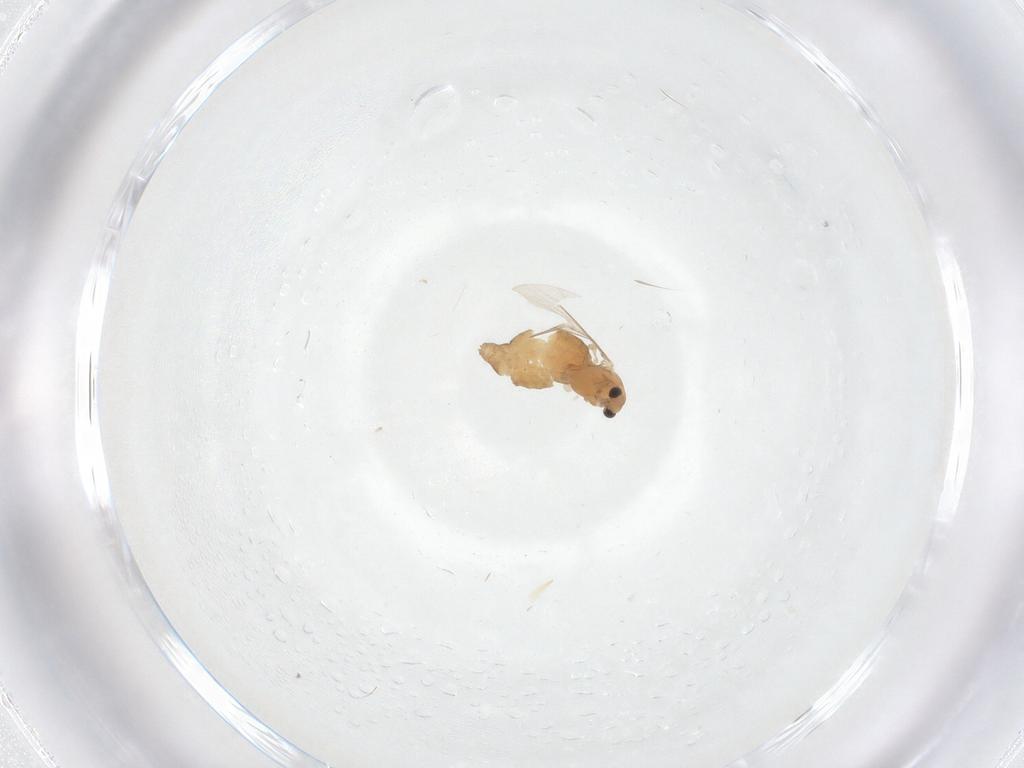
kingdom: Animalia
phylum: Arthropoda
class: Insecta
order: Diptera
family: Chironomidae
